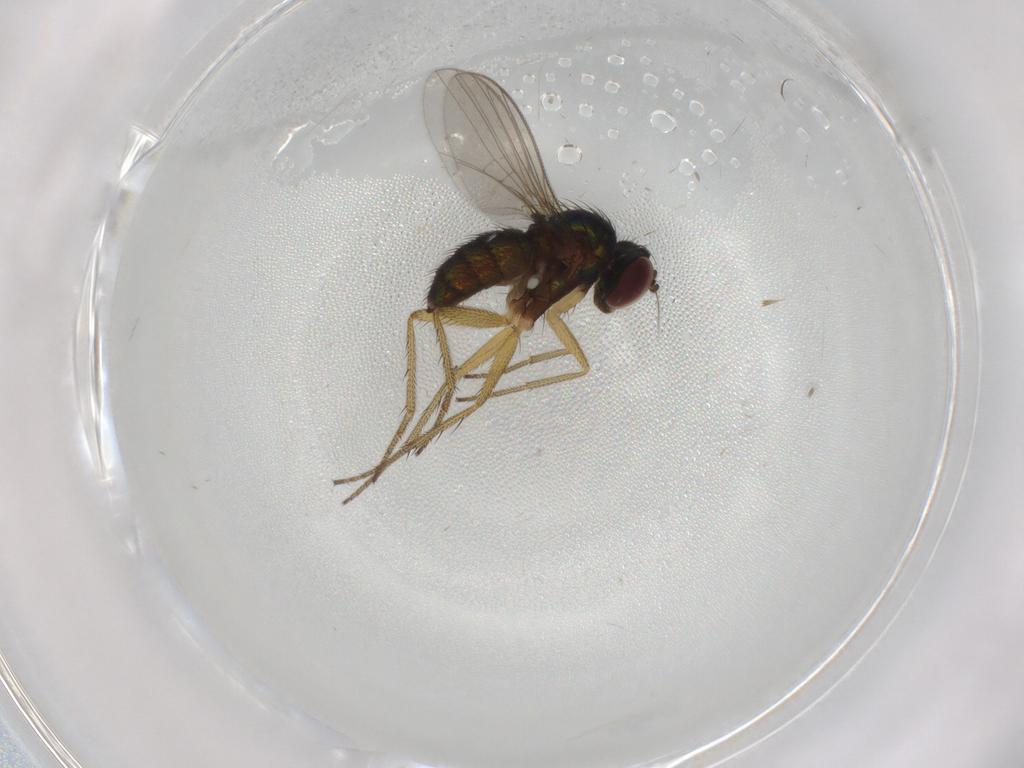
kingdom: Animalia
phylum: Arthropoda
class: Insecta
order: Diptera
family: Dolichopodidae
